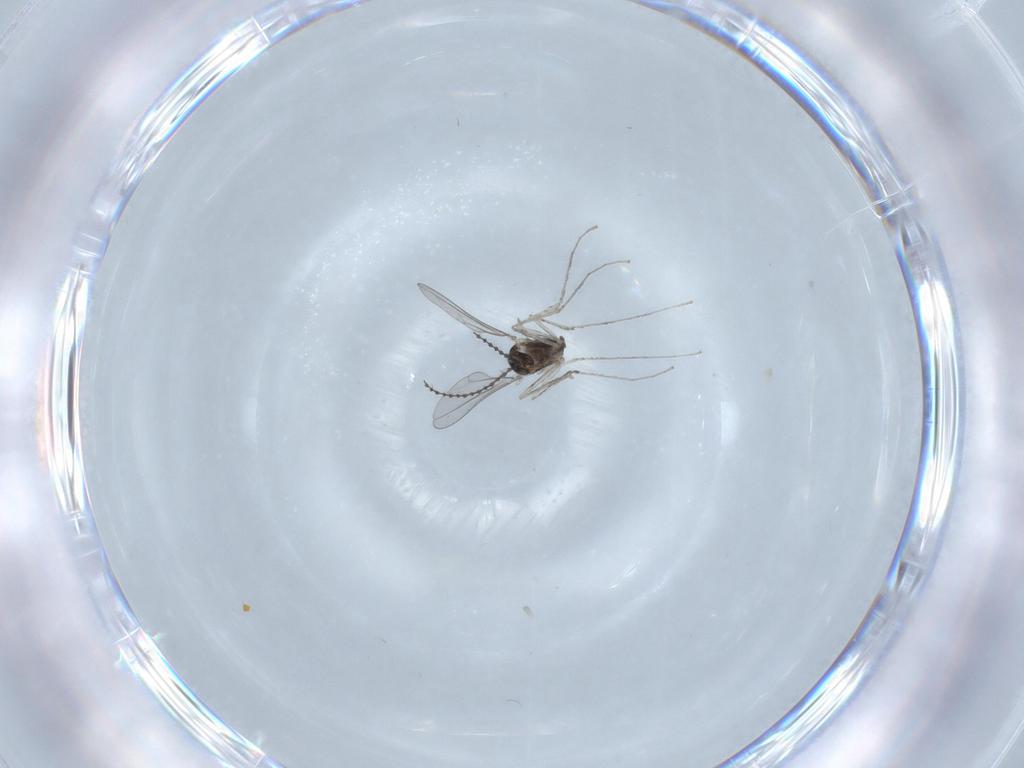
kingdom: Animalia
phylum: Arthropoda
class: Insecta
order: Diptera
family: Cecidomyiidae
